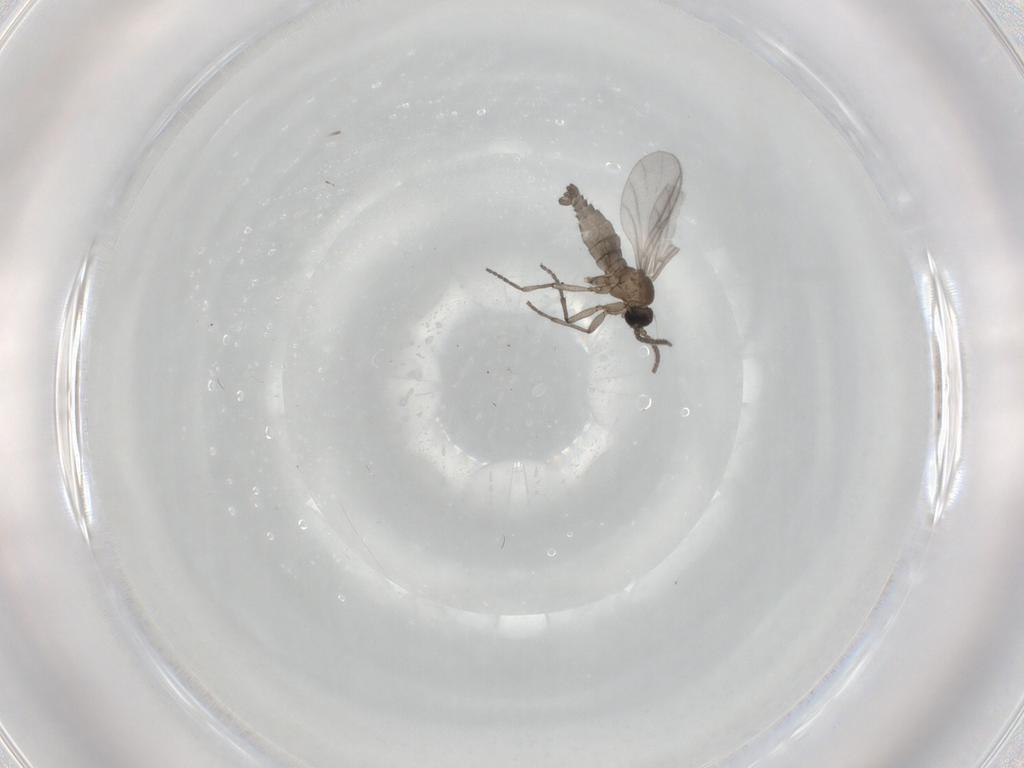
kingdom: Animalia
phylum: Arthropoda
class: Insecta
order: Diptera
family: Sciaridae
